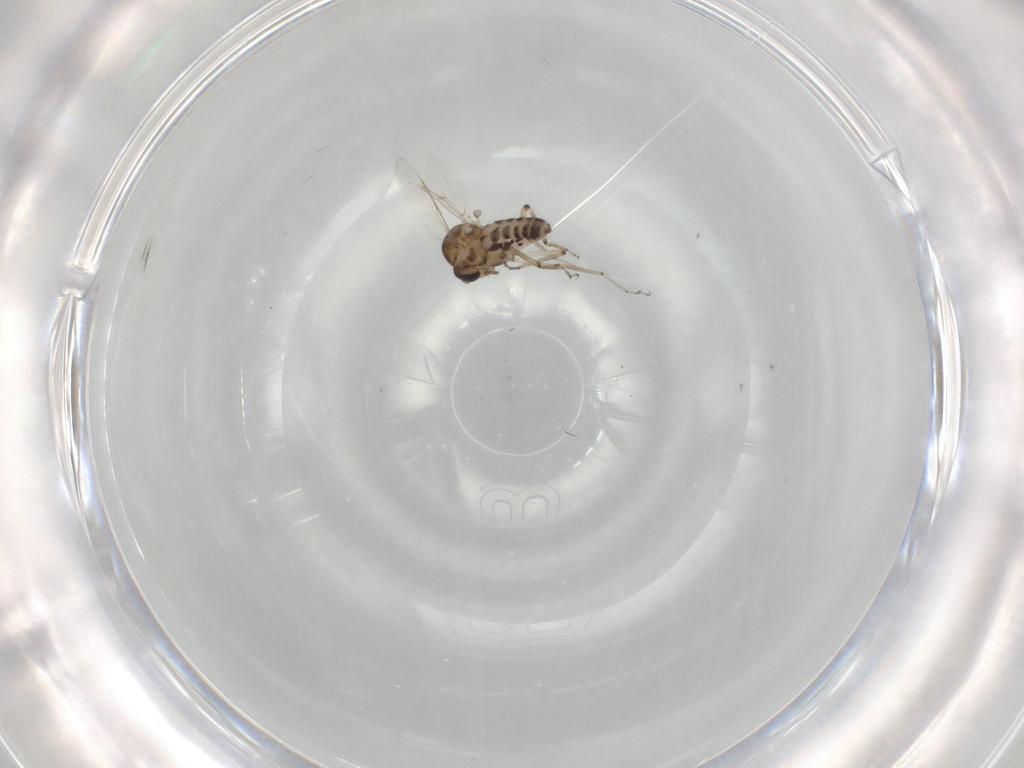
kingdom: Animalia
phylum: Arthropoda
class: Insecta
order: Diptera
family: Ceratopogonidae
